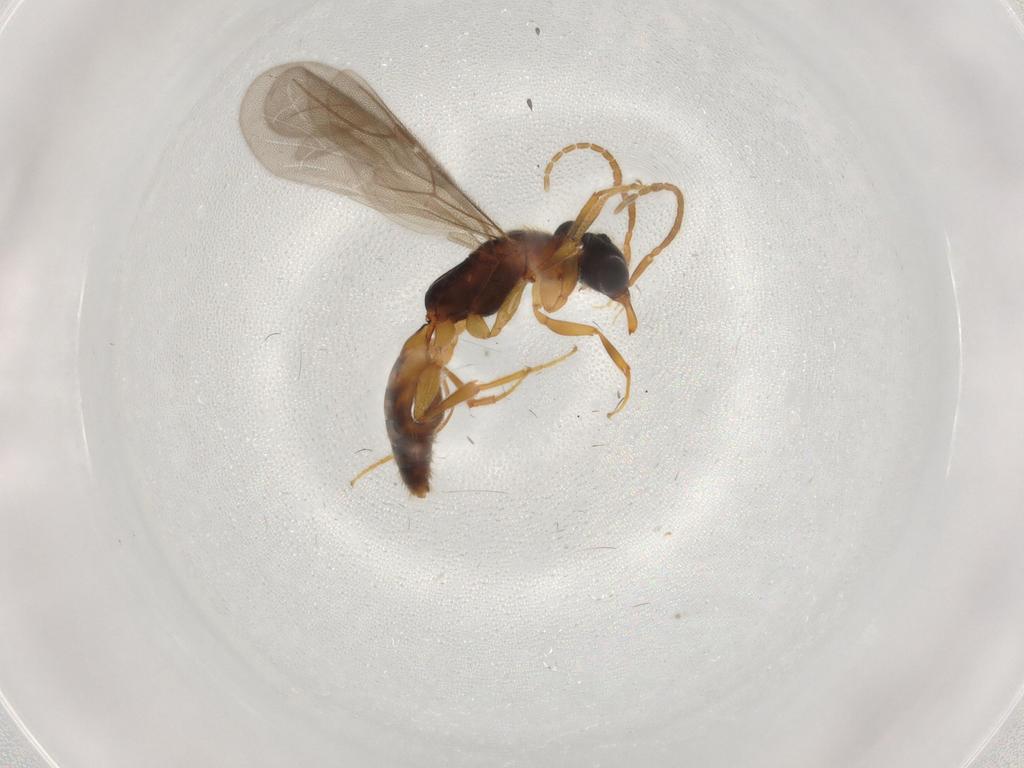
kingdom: Animalia
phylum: Arthropoda
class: Insecta
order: Hymenoptera
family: Bethylidae
